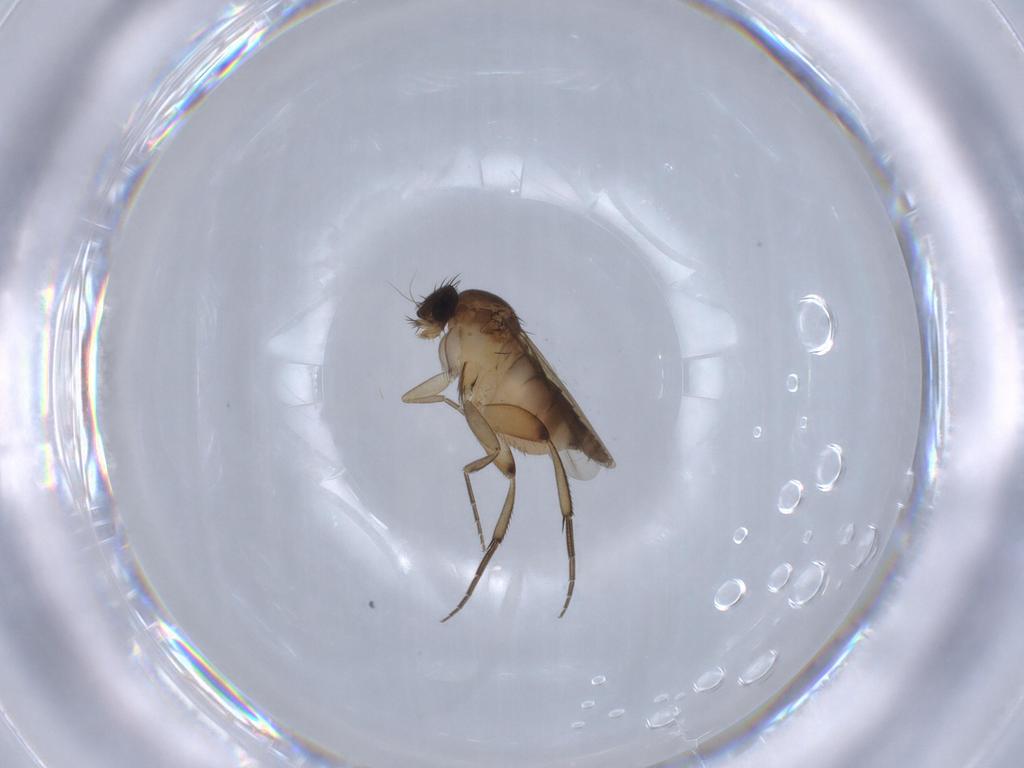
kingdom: Animalia
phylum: Arthropoda
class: Insecta
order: Diptera
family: Phoridae
